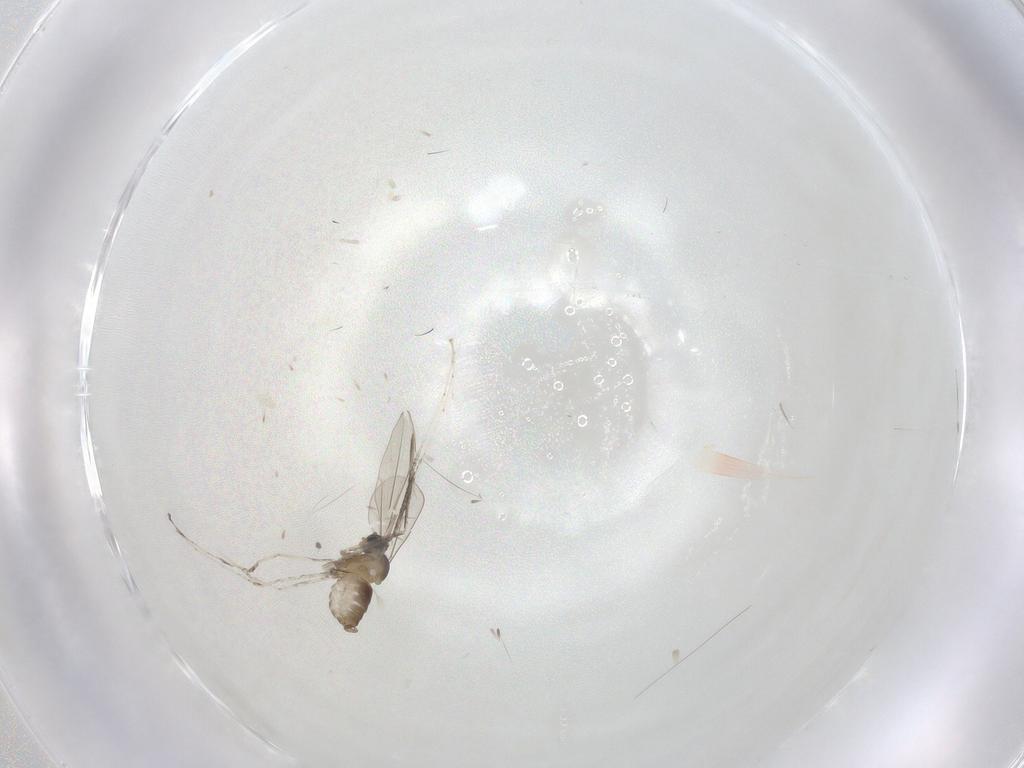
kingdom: Animalia
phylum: Arthropoda
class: Insecta
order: Diptera
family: Cecidomyiidae
